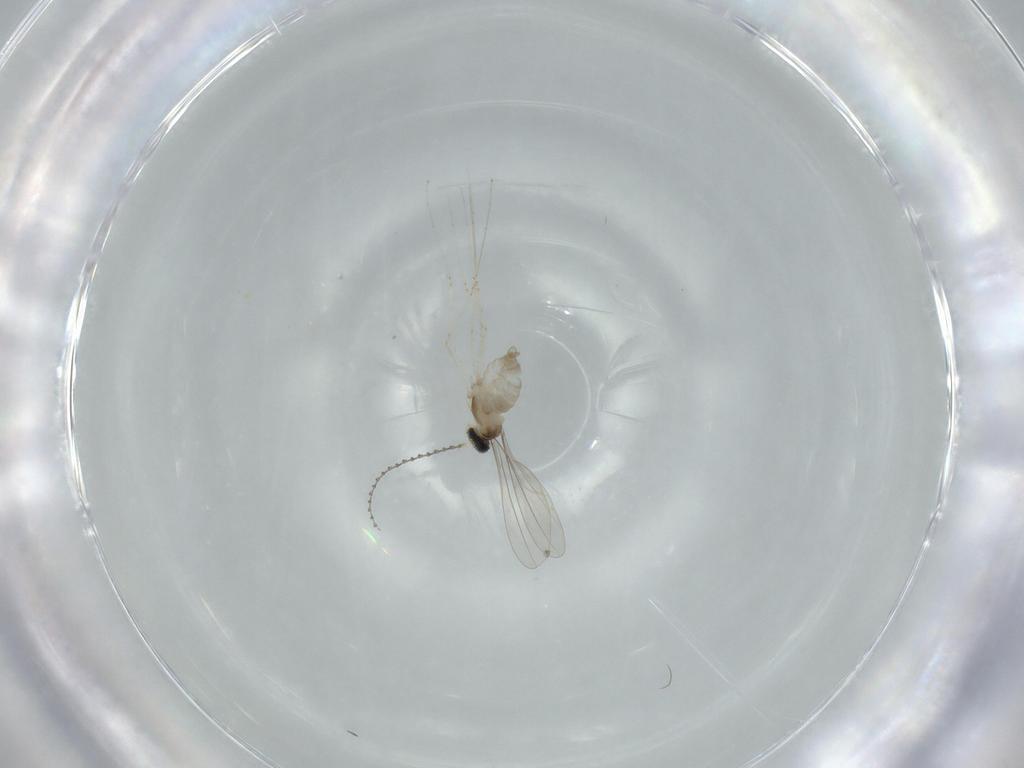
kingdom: Animalia
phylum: Arthropoda
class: Insecta
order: Diptera
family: Cecidomyiidae
